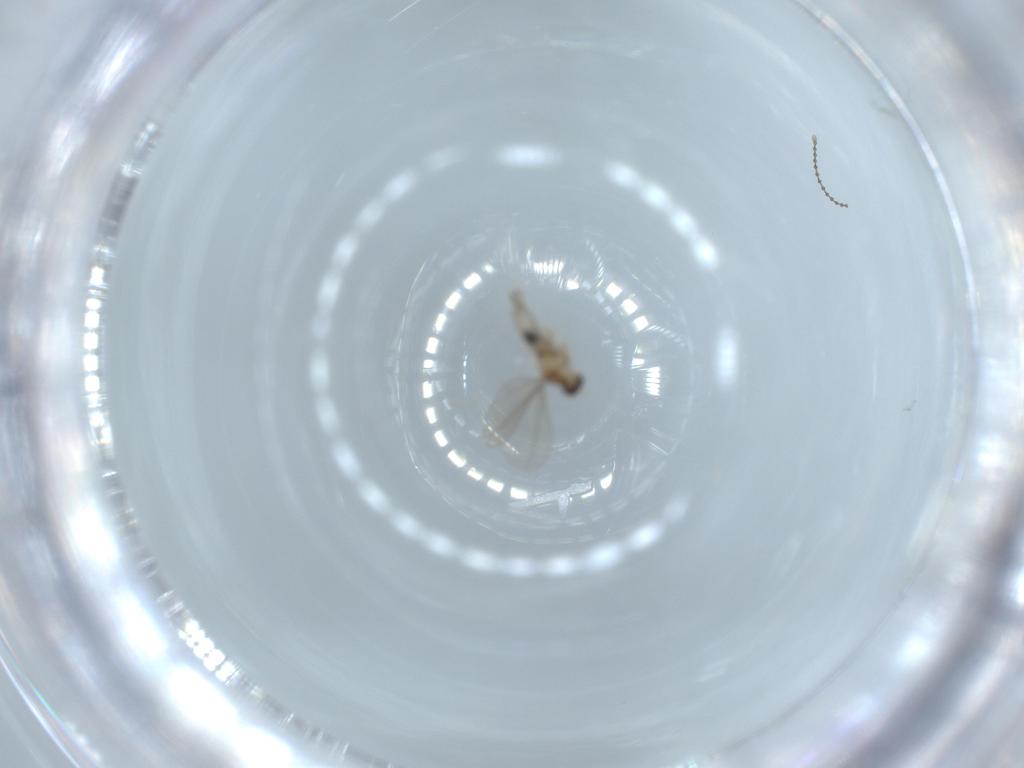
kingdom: Animalia
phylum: Arthropoda
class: Insecta
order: Diptera
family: Cecidomyiidae
